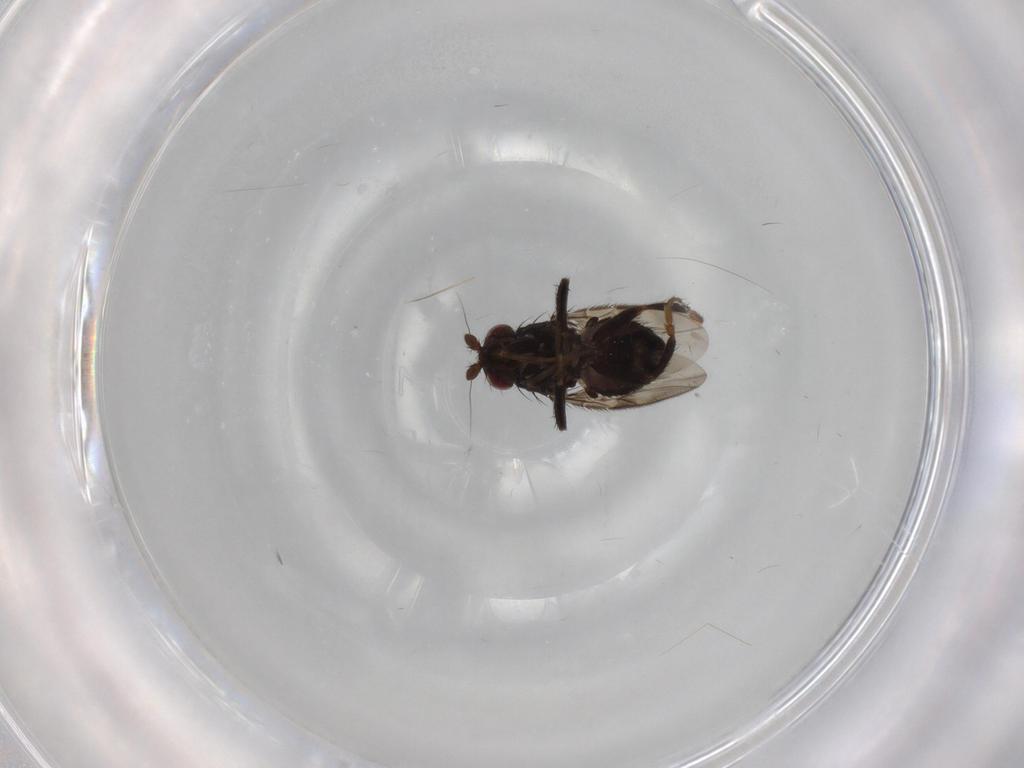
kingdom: Animalia
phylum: Arthropoda
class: Insecta
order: Diptera
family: Sphaeroceridae
